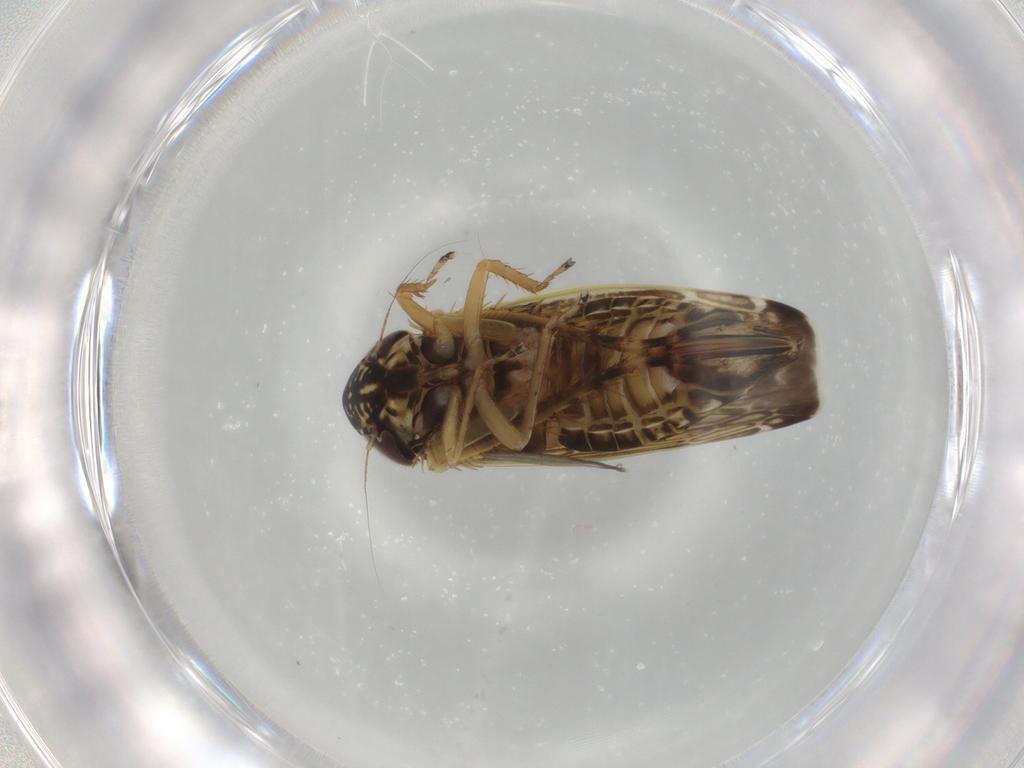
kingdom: Animalia
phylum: Arthropoda
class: Insecta
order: Hemiptera
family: Cicadellidae
